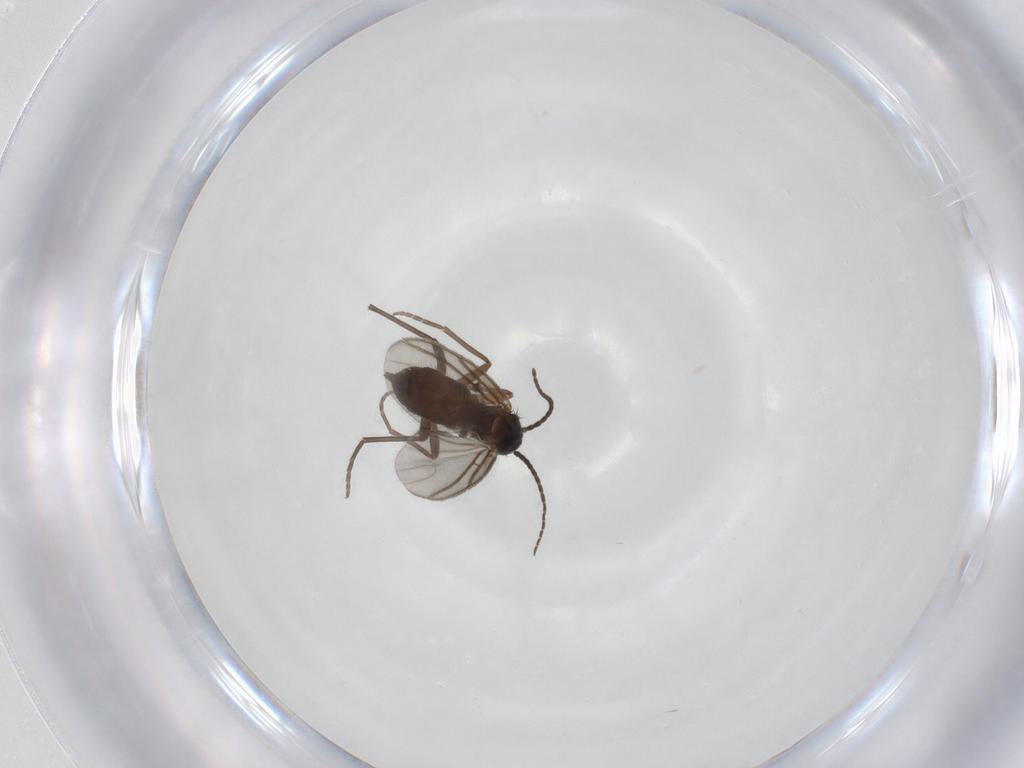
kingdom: Animalia
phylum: Arthropoda
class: Insecta
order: Diptera
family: Sciaridae
